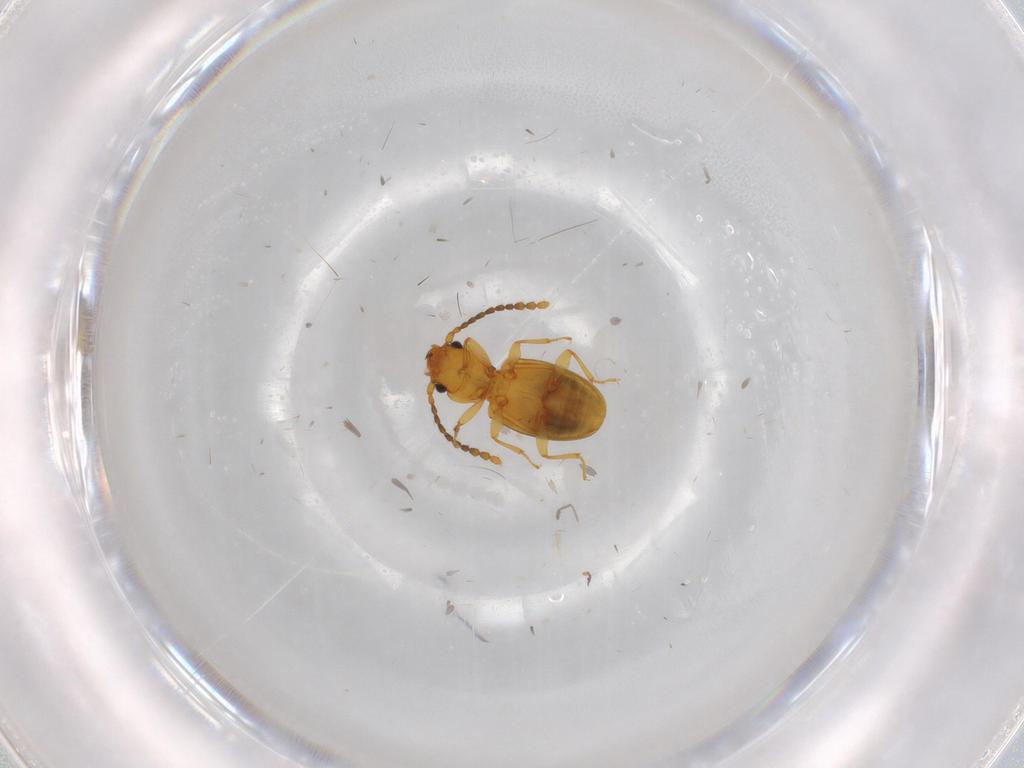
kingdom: Animalia
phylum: Arthropoda
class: Insecta
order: Coleoptera
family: Laemophloeidae
